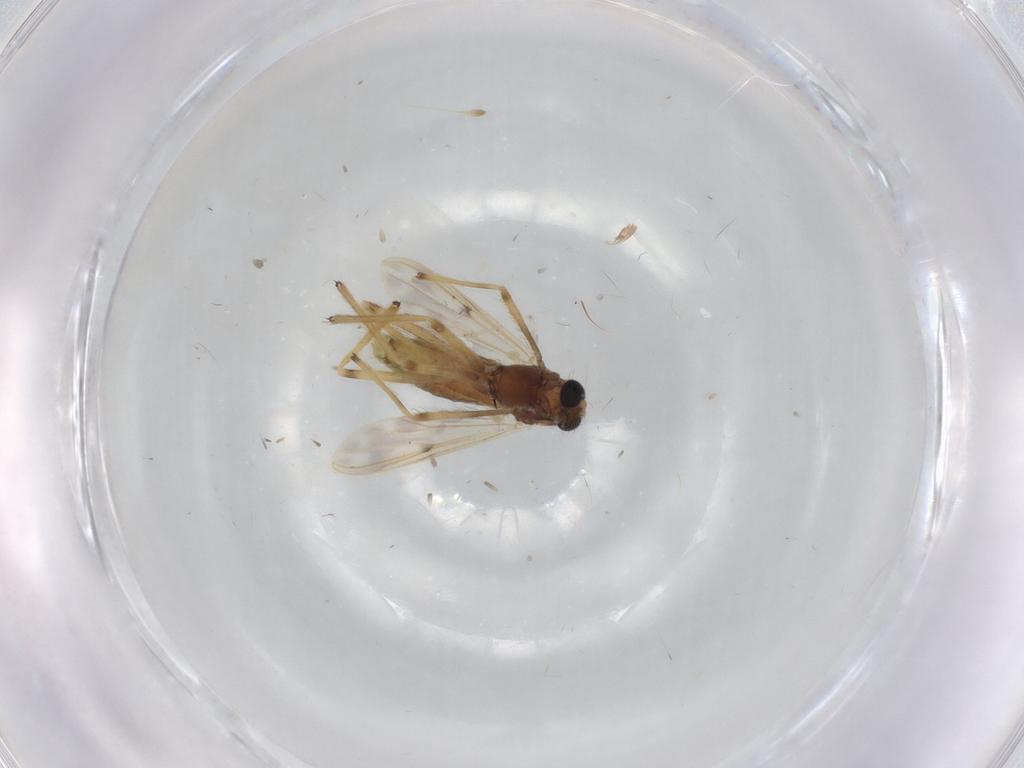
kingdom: Animalia
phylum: Arthropoda
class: Insecta
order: Diptera
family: Chironomidae
